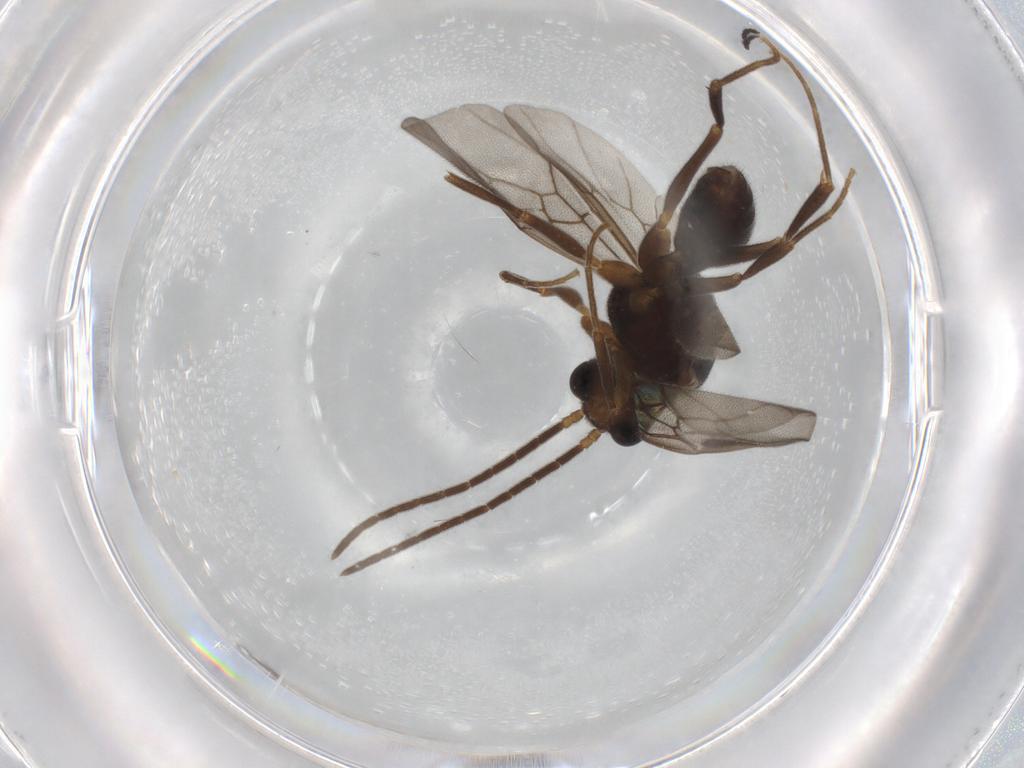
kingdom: Animalia
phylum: Arthropoda
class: Insecta
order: Hymenoptera
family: Formicidae
